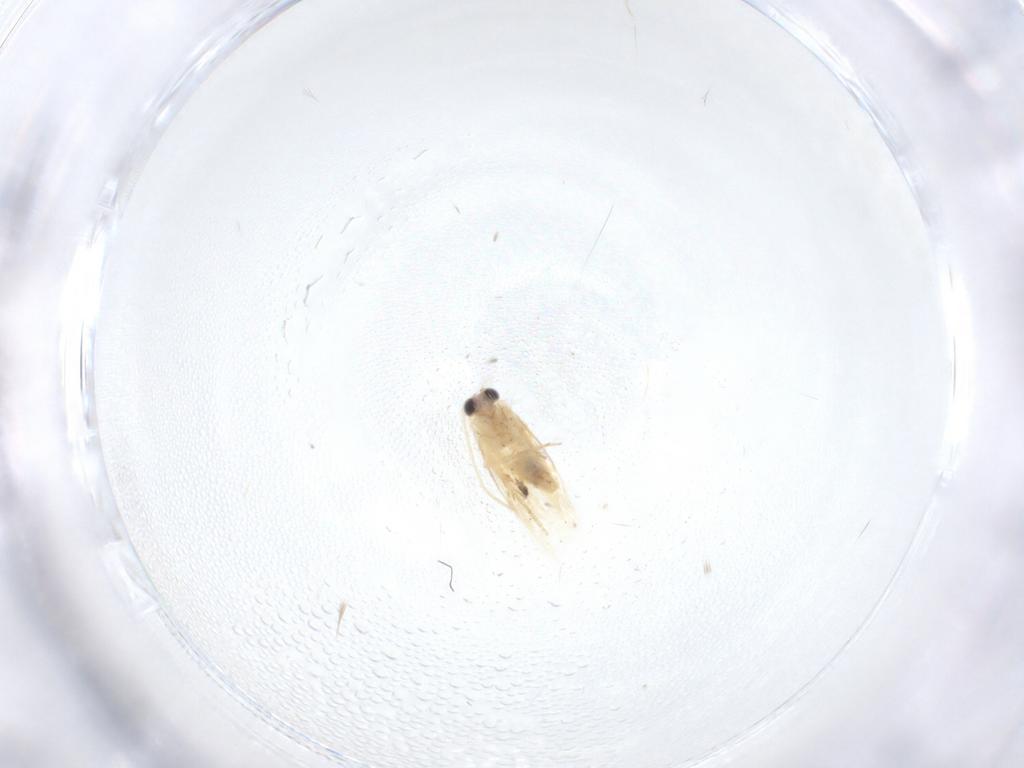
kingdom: Animalia
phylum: Arthropoda
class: Insecta
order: Lepidoptera
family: Nepticulidae
